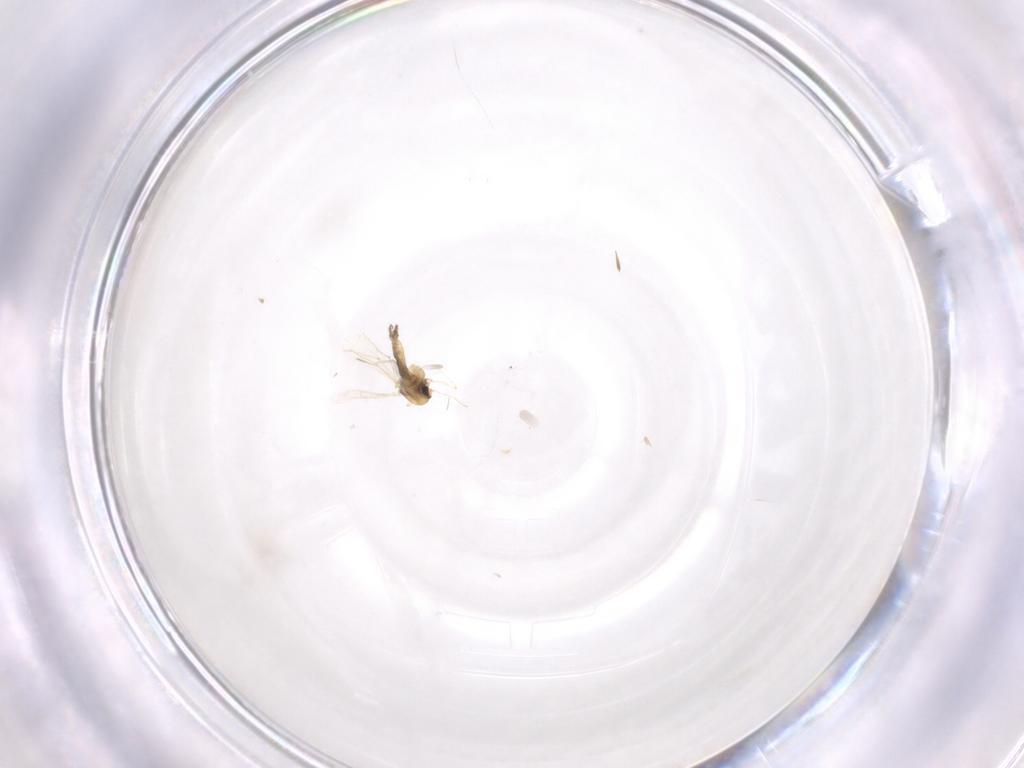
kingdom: Animalia
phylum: Arthropoda
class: Insecta
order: Diptera
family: Chironomidae
